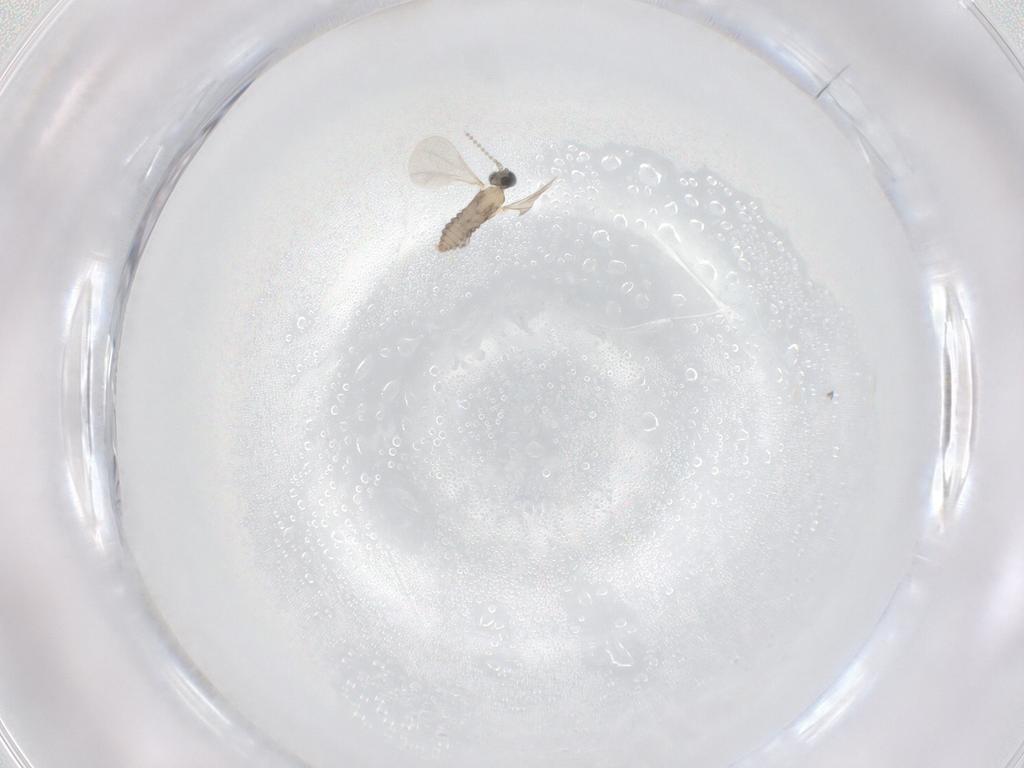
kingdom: Animalia
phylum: Arthropoda
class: Insecta
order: Diptera
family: Cecidomyiidae
